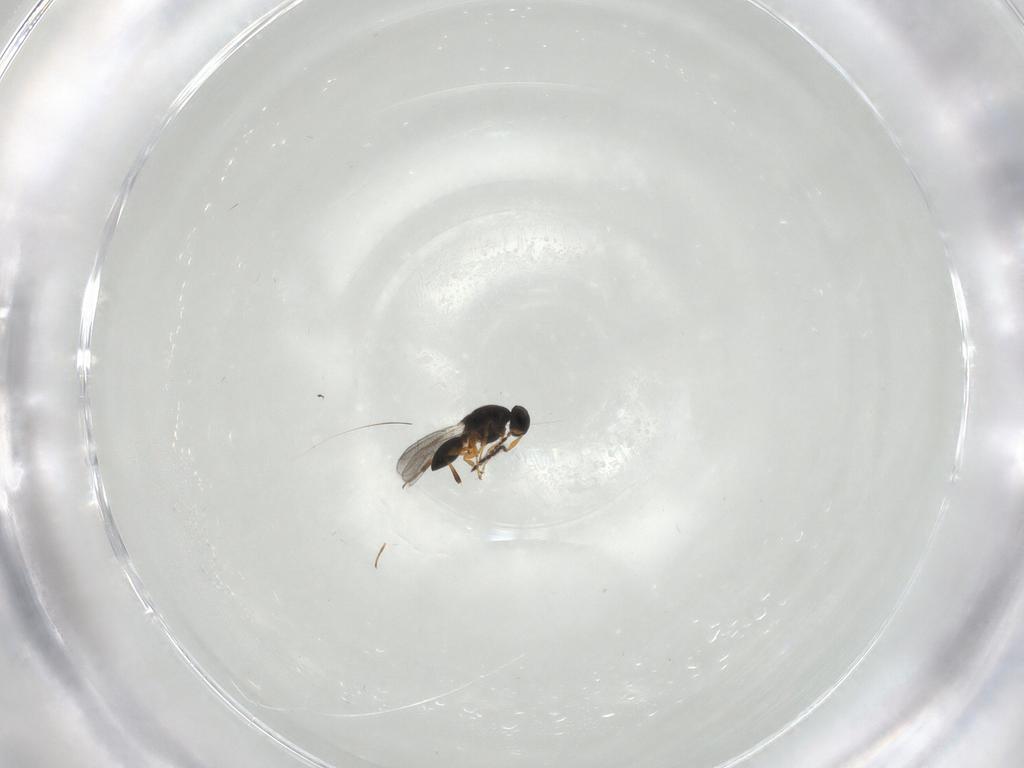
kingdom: Animalia
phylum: Arthropoda
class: Insecta
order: Hymenoptera
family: Platygastridae
